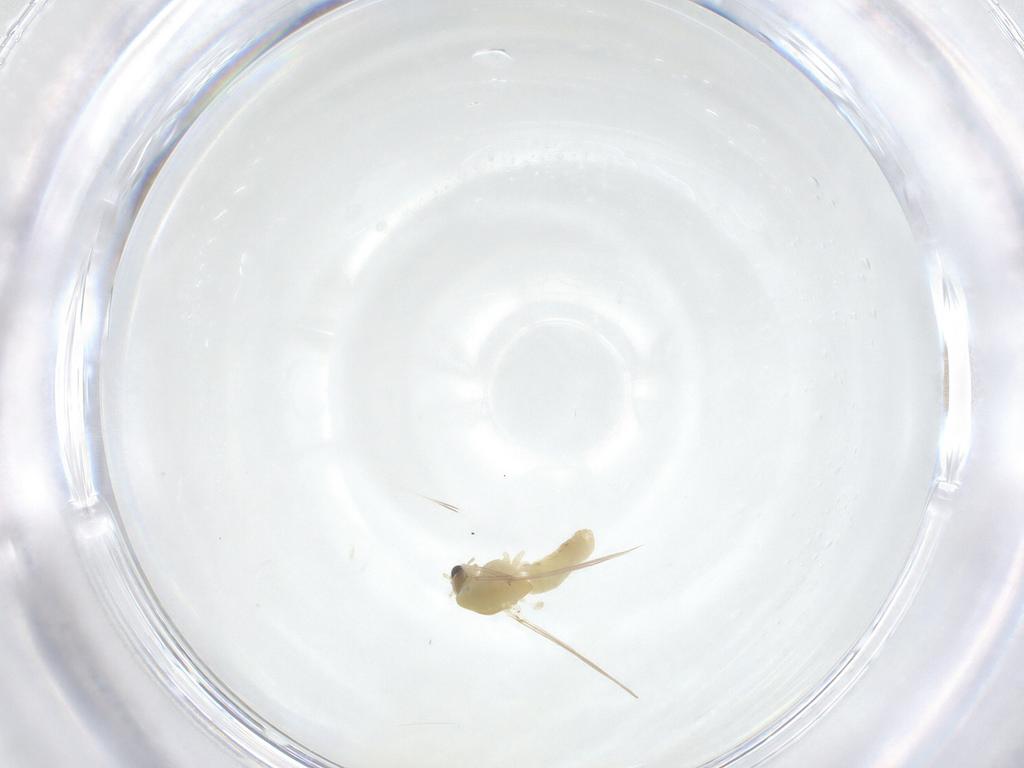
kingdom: Animalia
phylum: Arthropoda
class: Insecta
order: Diptera
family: Chironomidae
